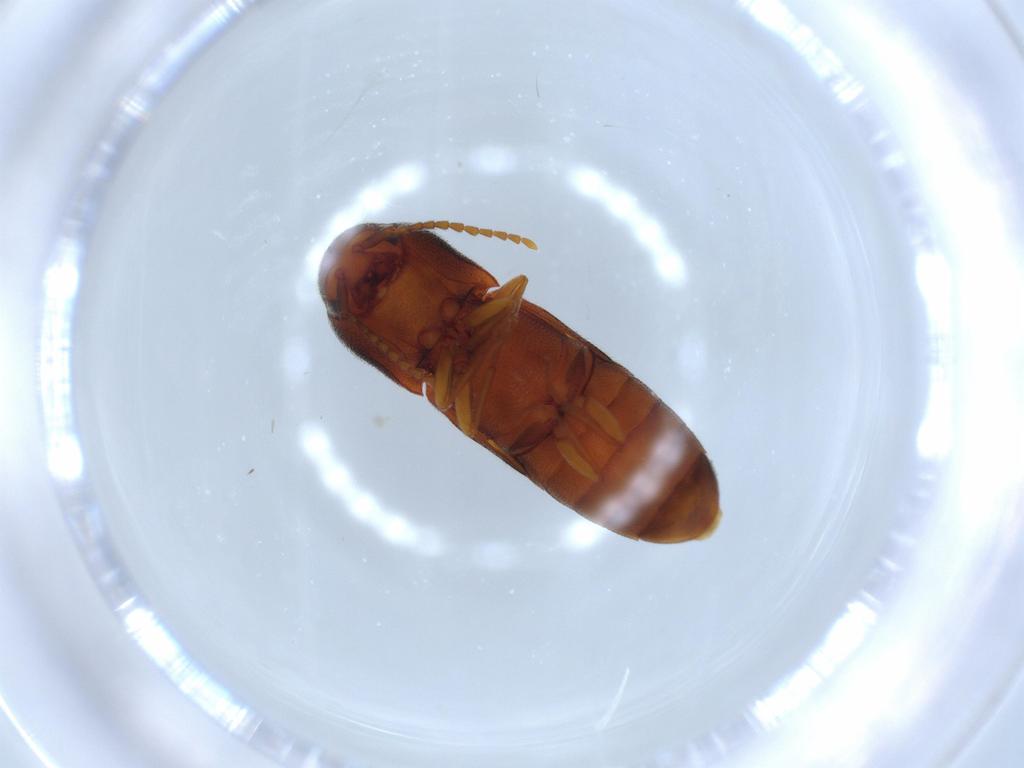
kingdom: Animalia
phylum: Arthropoda
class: Insecta
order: Coleoptera
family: Eucnemidae
